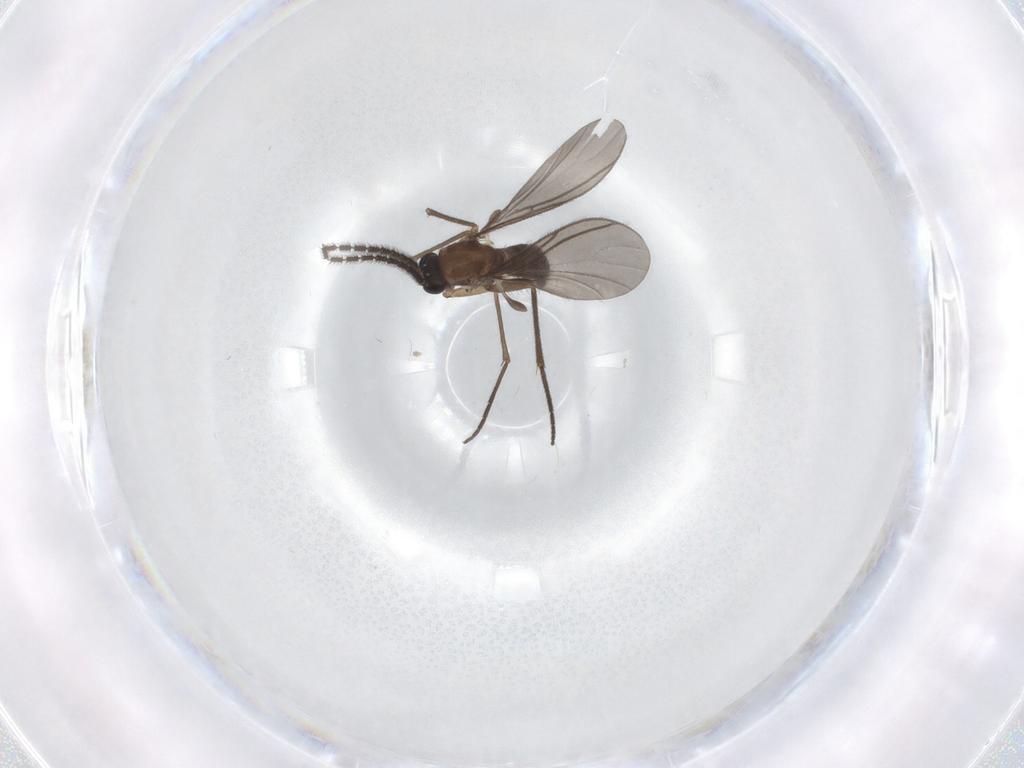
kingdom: Animalia
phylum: Arthropoda
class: Insecta
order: Diptera
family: Sciaridae
